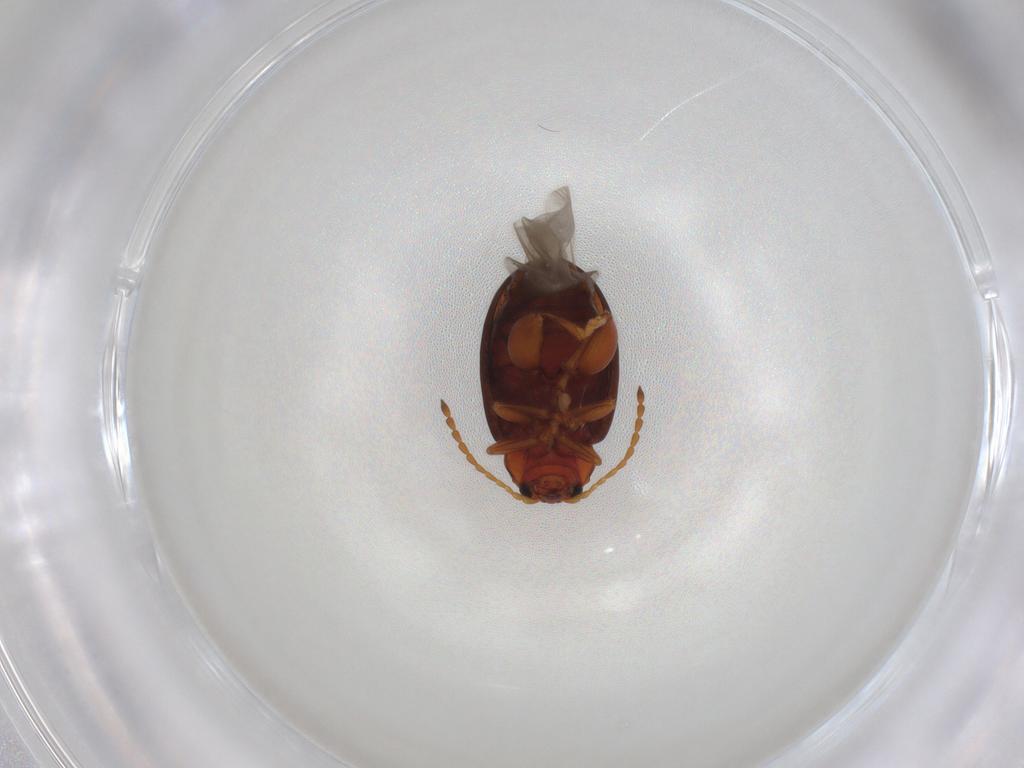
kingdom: Animalia
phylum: Arthropoda
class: Insecta
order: Coleoptera
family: Chrysomelidae
